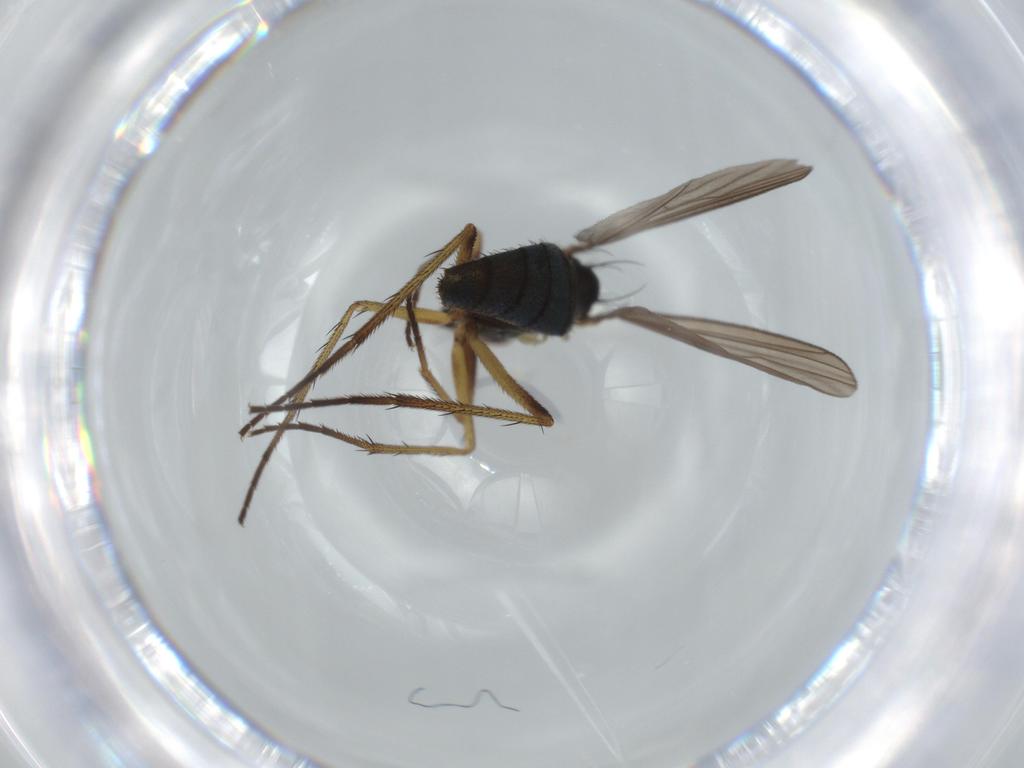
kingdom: Animalia
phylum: Arthropoda
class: Insecta
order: Diptera
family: Dolichopodidae
